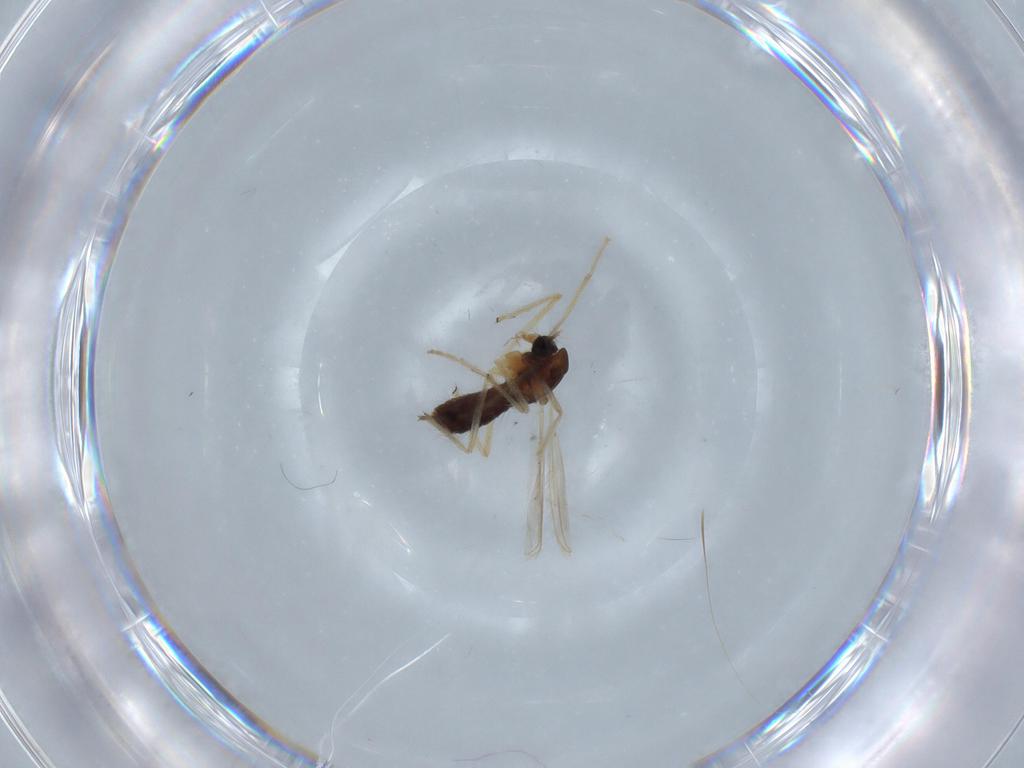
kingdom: Animalia
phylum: Arthropoda
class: Insecta
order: Diptera
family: Chironomidae
